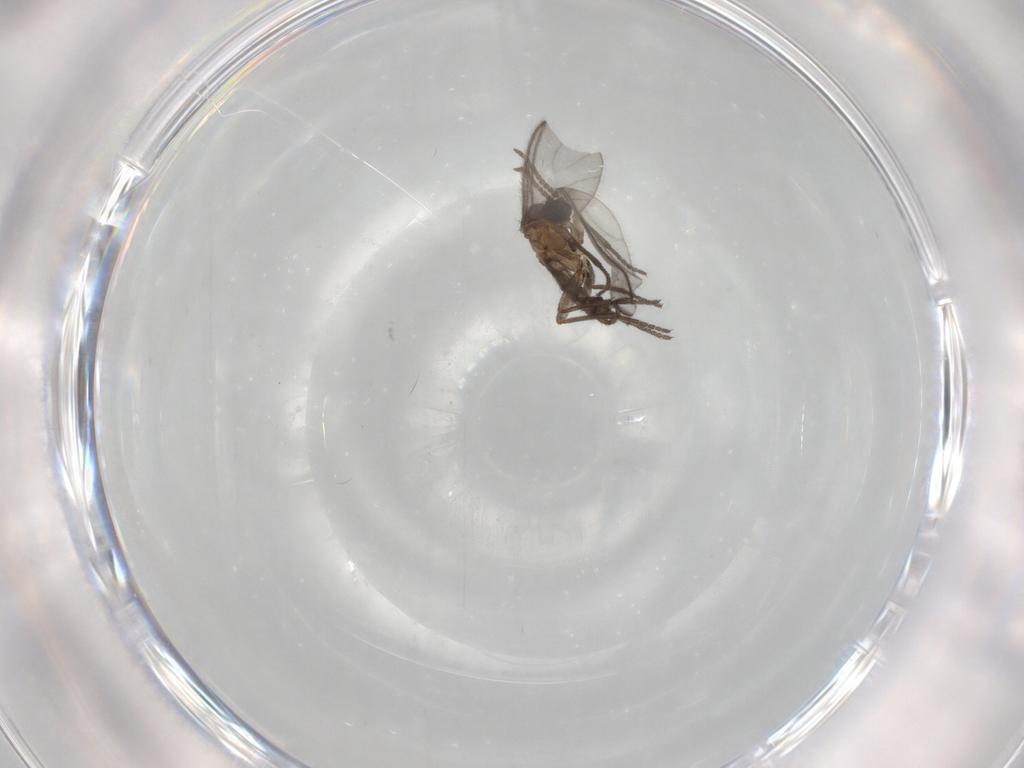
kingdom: Animalia
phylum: Arthropoda
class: Insecta
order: Diptera
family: Sciaridae
